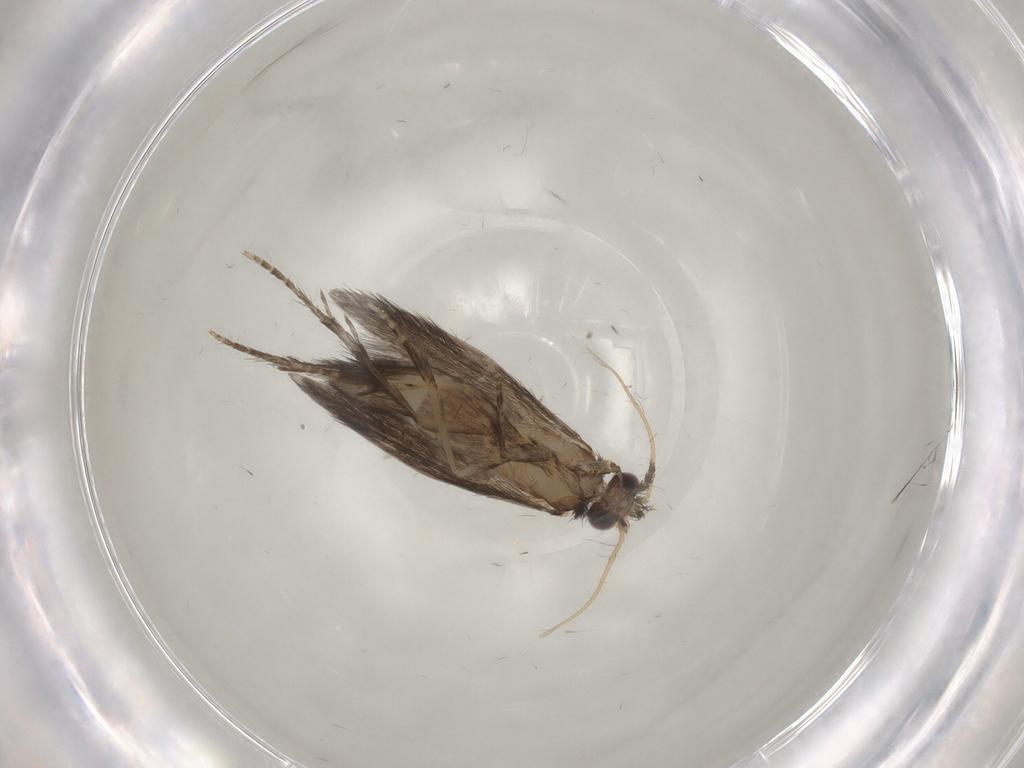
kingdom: Animalia
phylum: Arthropoda
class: Insecta
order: Trichoptera
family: Hydroptilidae
